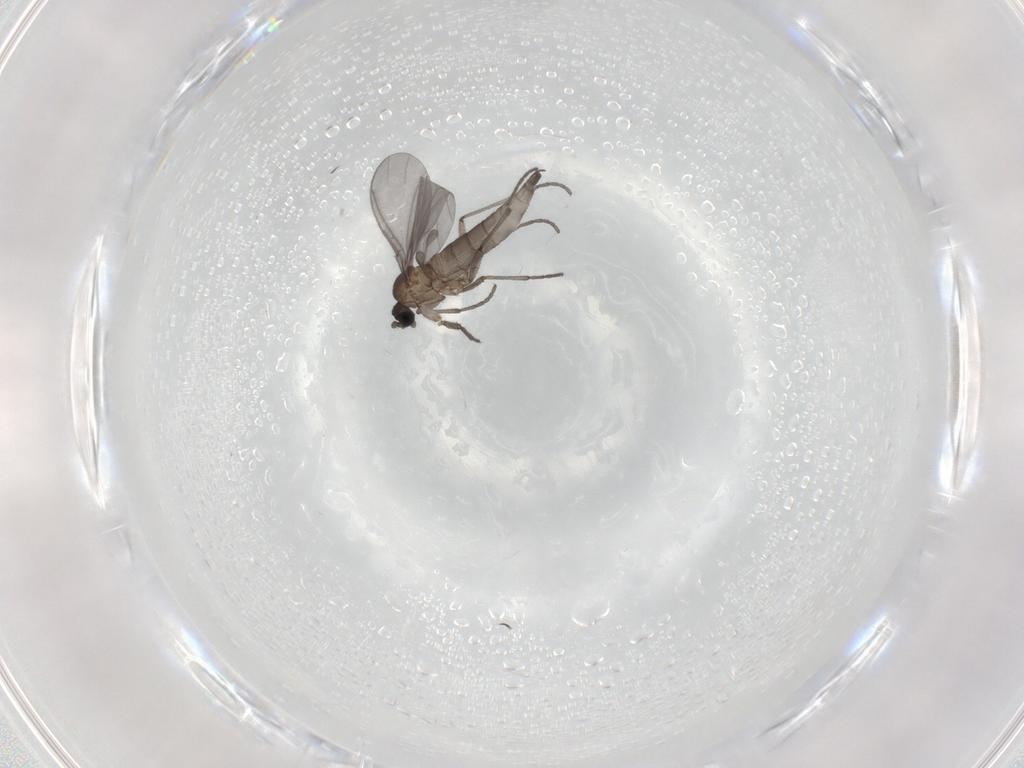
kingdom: Animalia
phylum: Arthropoda
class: Insecta
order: Diptera
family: Sciaridae
